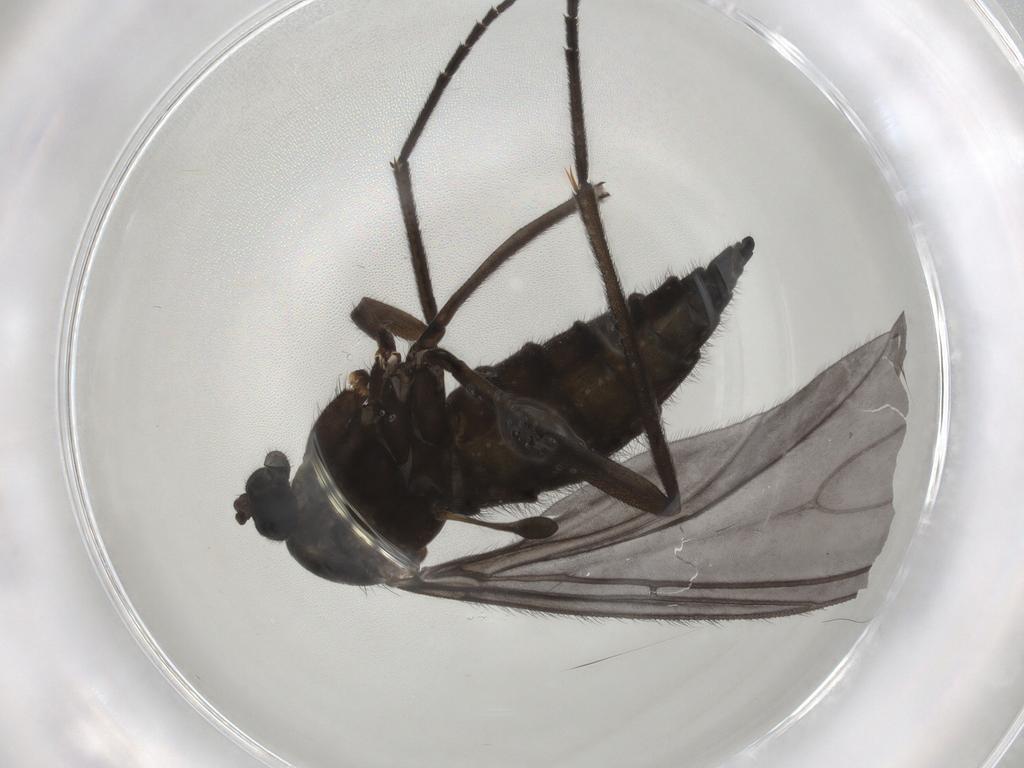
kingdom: Animalia
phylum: Arthropoda
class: Insecta
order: Diptera
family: Sciaridae
